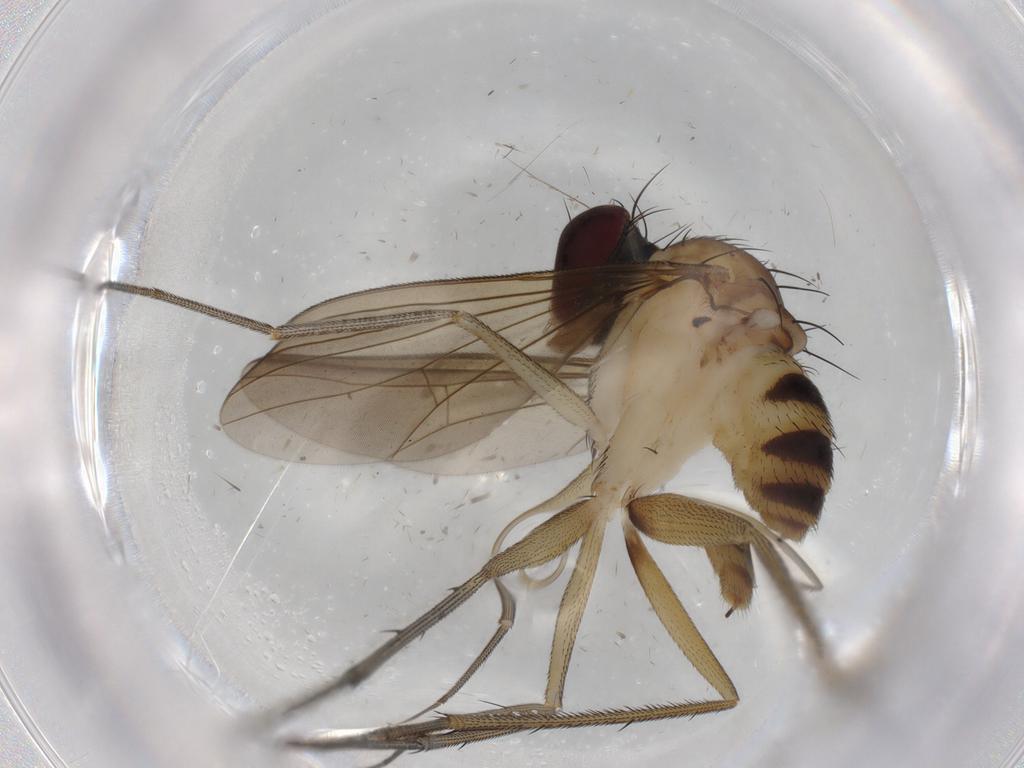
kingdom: Animalia
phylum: Arthropoda
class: Insecta
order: Diptera
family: Dolichopodidae
